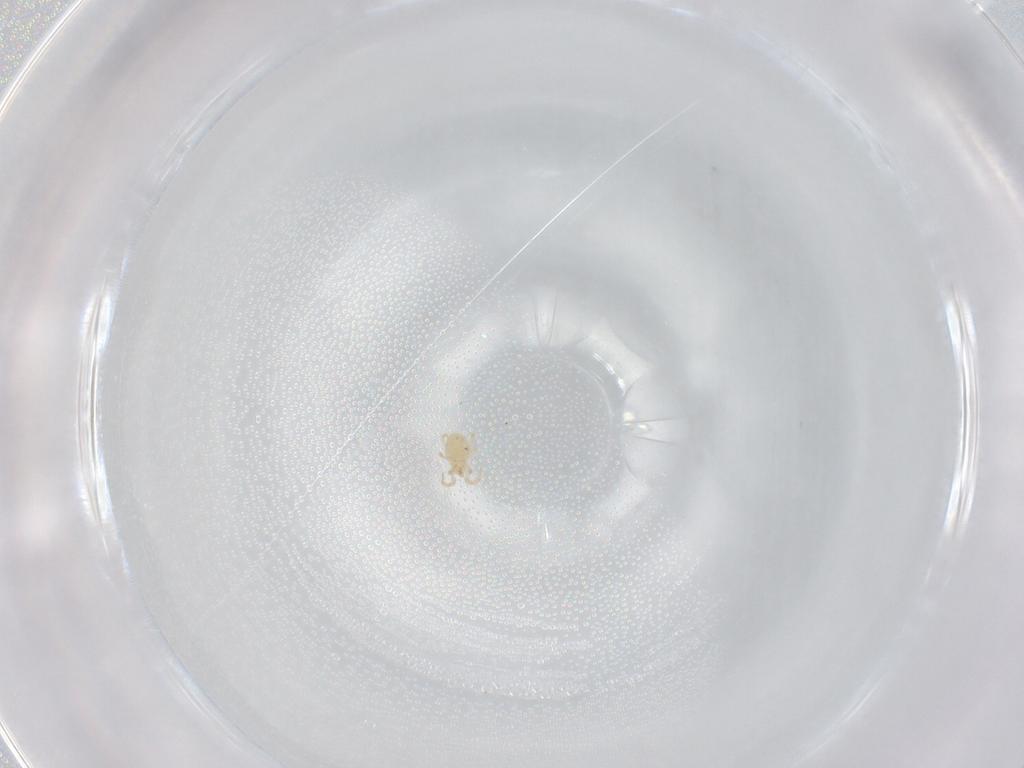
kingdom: Animalia
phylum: Arthropoda
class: Arachnida
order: Mesostigmata
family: Phytoseiidae
